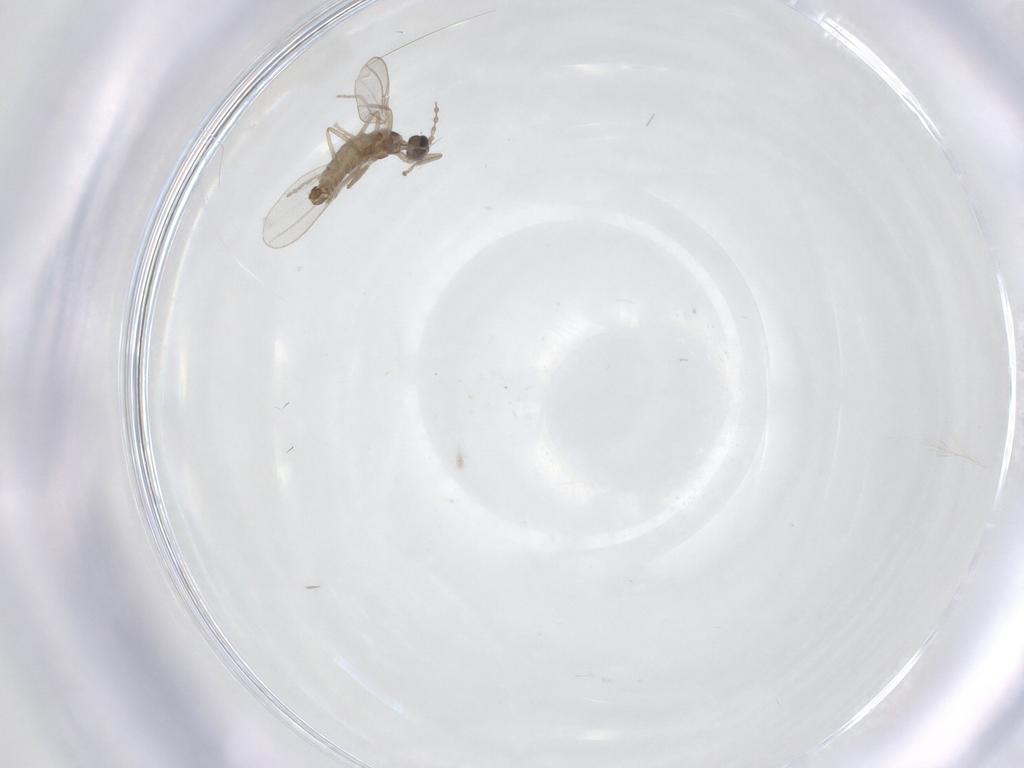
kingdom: Animalia
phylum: Arthropoda
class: Insecta
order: Diptera
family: Cecidomyiidae
